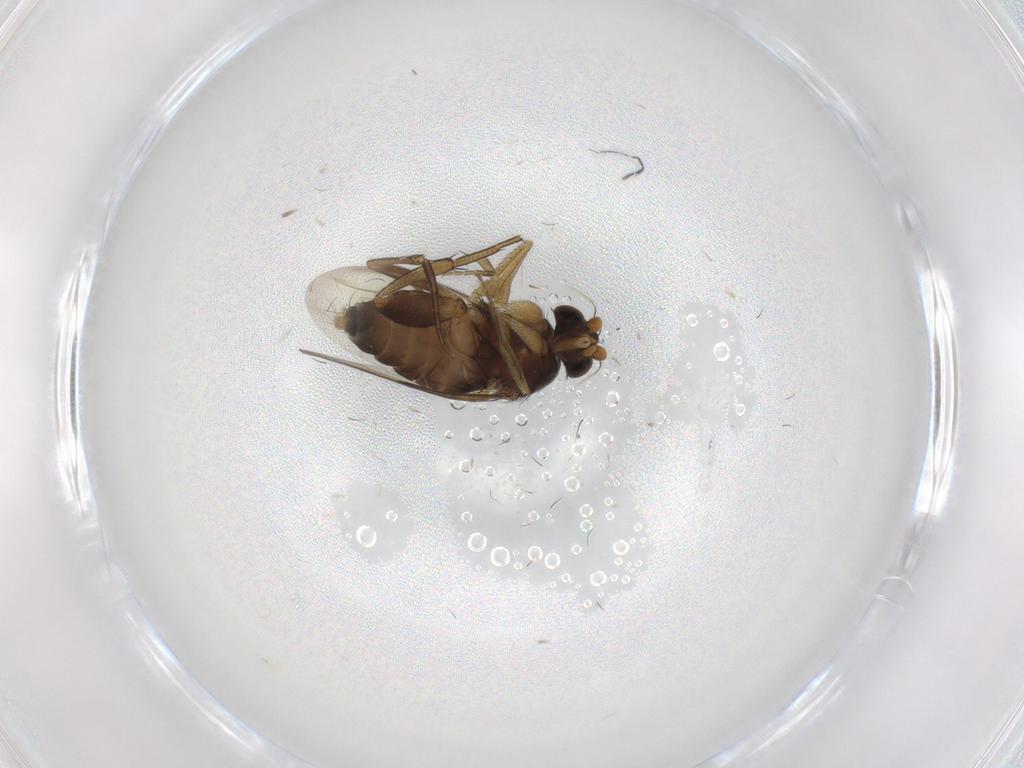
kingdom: Animalia
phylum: Arthropoda
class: Insecta
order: Diptera
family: Phoridae
